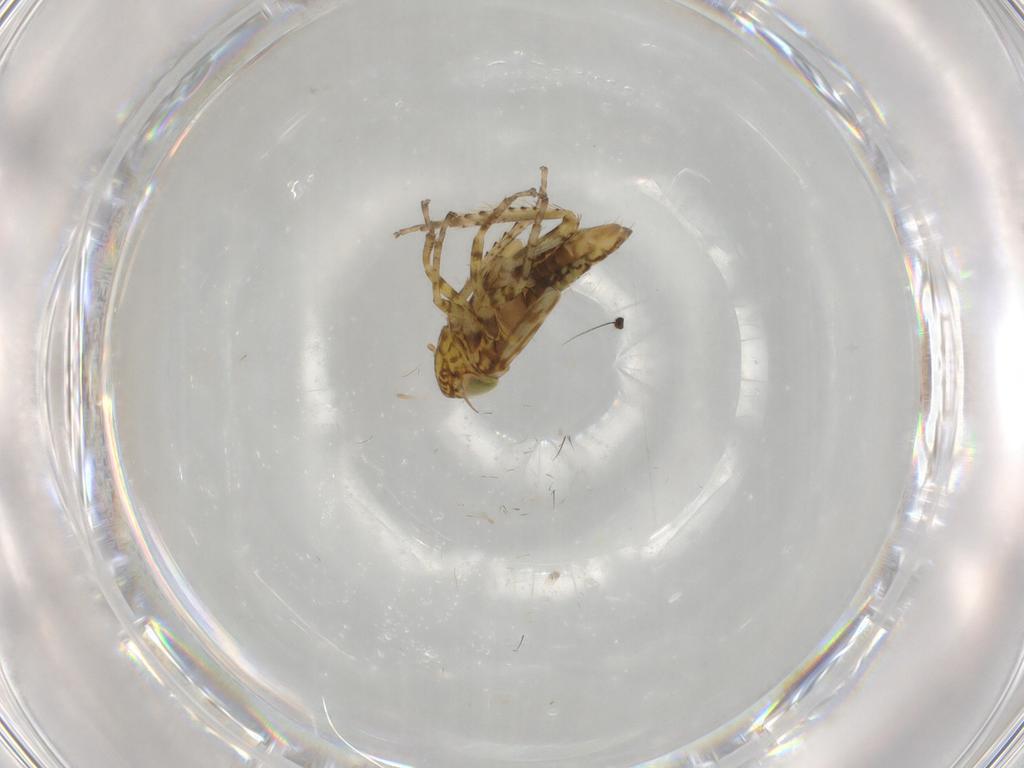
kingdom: Animalia
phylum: Arthropoda
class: Insecta
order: Hemiptera
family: Cicadellidae
